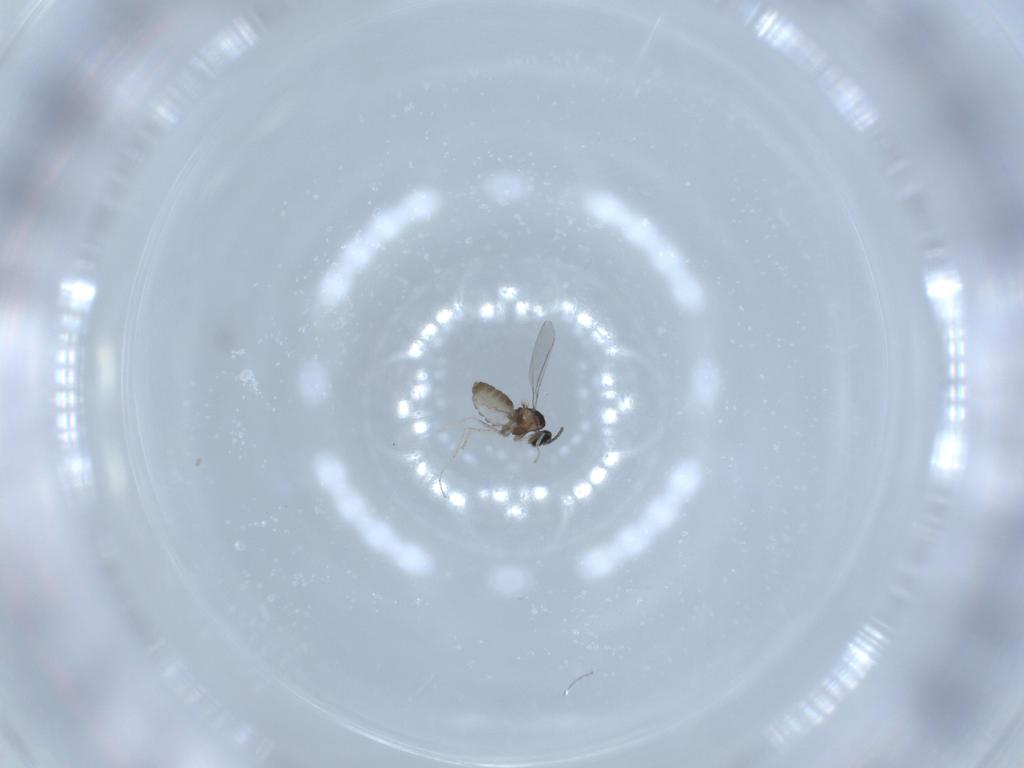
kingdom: Animalia
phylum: Arthropoda
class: Insecta
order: Diptera
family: Cecidomyiidae
